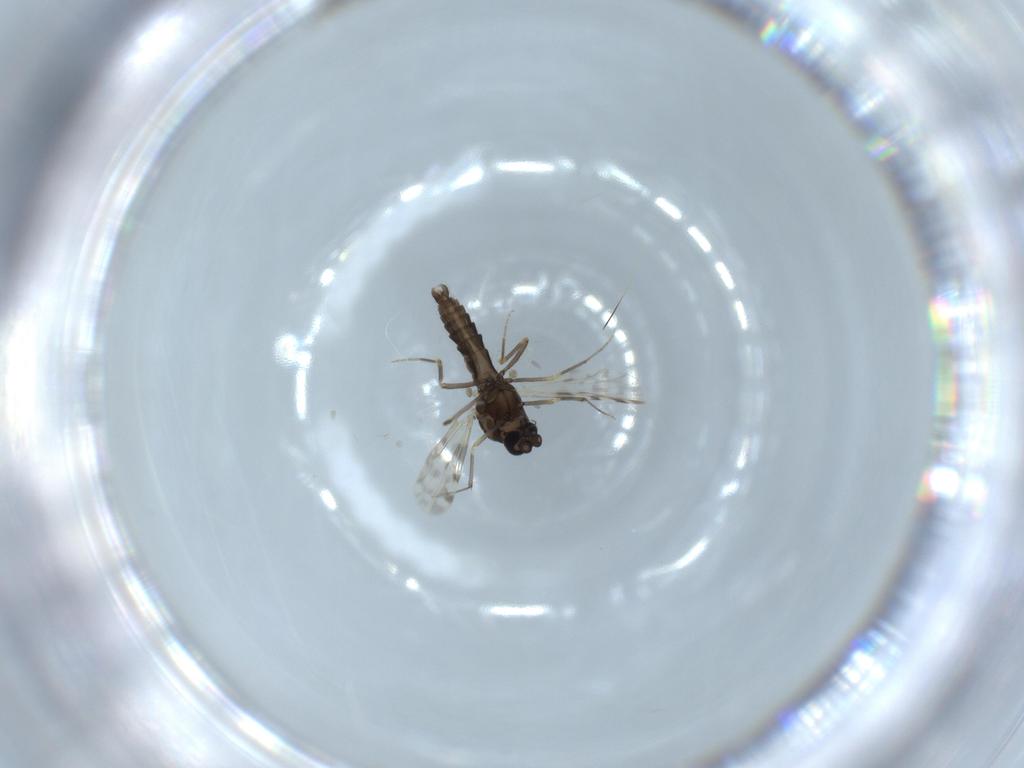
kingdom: Animalia
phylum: Arthropoda
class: Insecta
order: Diptera
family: Ceratopogonidae
